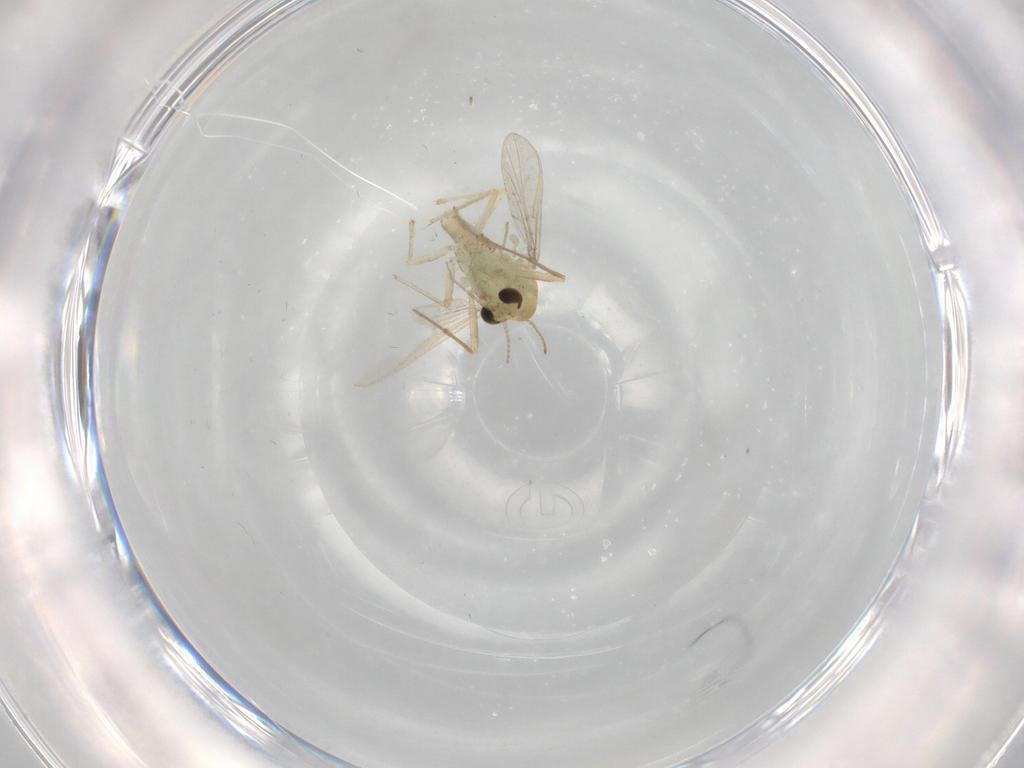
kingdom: Animalia
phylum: Arthropoda
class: Insecta
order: Diptera
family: Chironomidae
